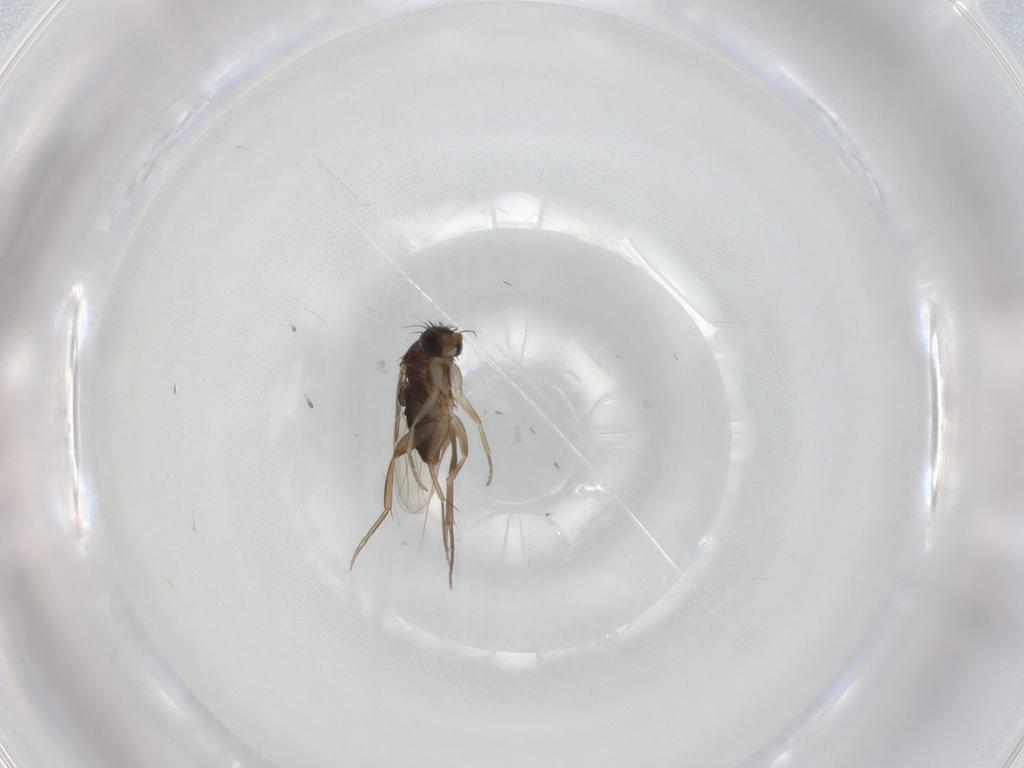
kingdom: Animalia
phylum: Arthropoda
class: Insecta
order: Diptera
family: Phoridae
